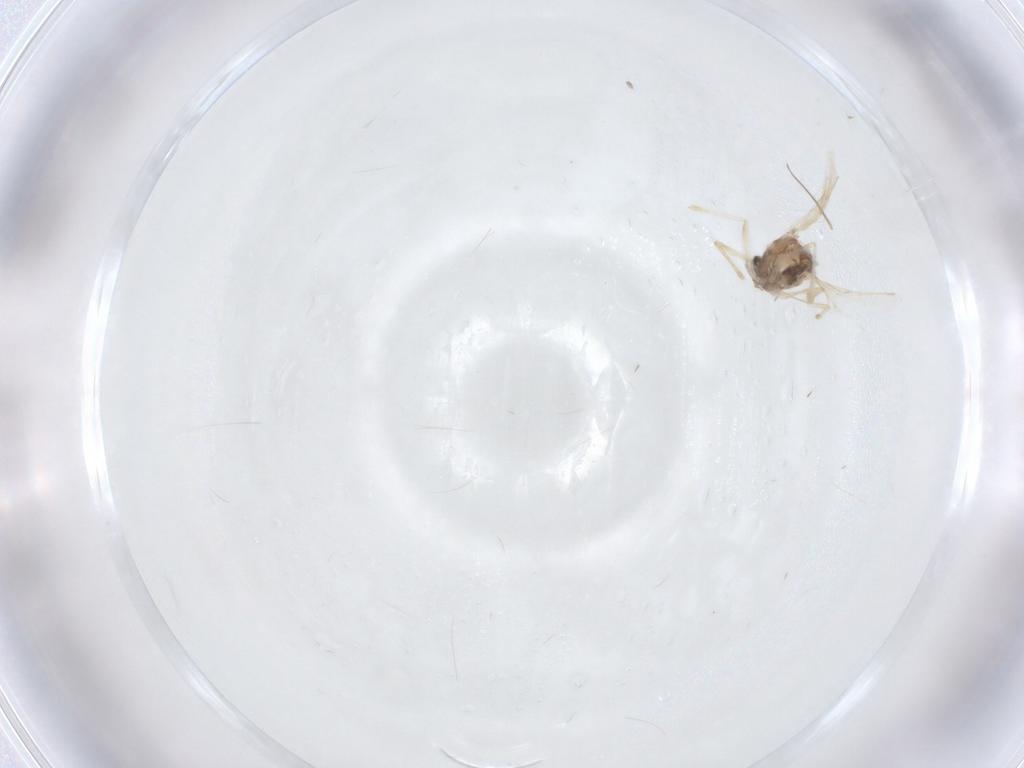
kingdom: Animalia
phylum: Arthropoda
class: Insecta
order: Diptera
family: Chironomidae
